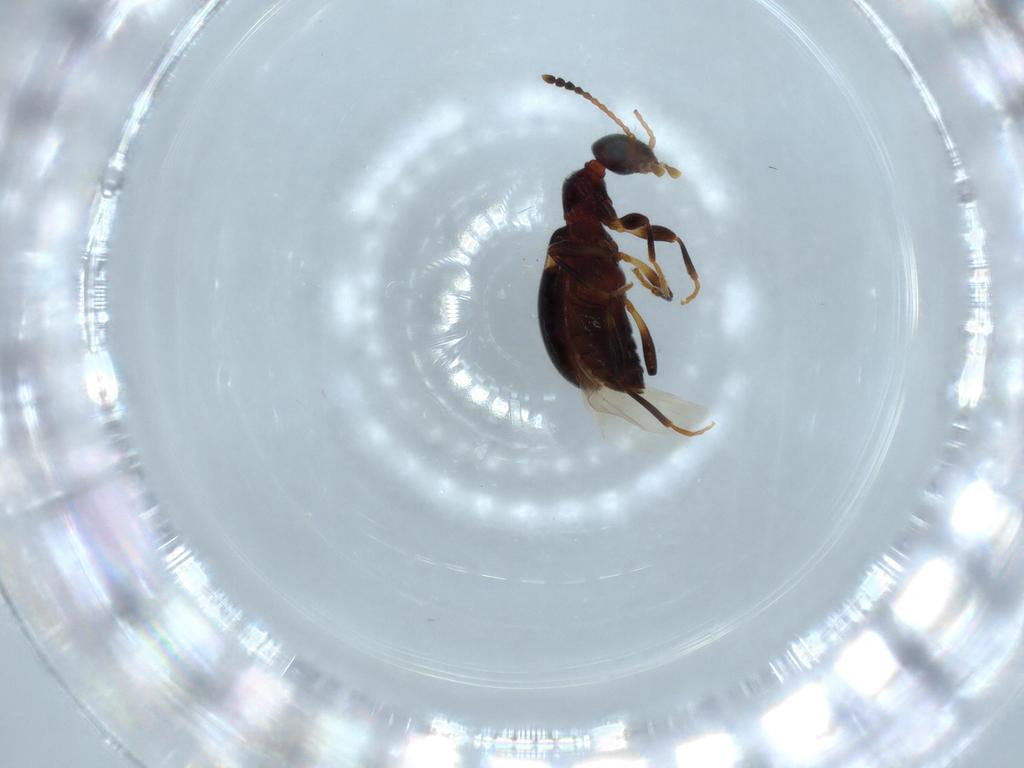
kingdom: Animalia
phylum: Arthropoda
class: Insecta
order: Coleoptera
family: Anthicidae
